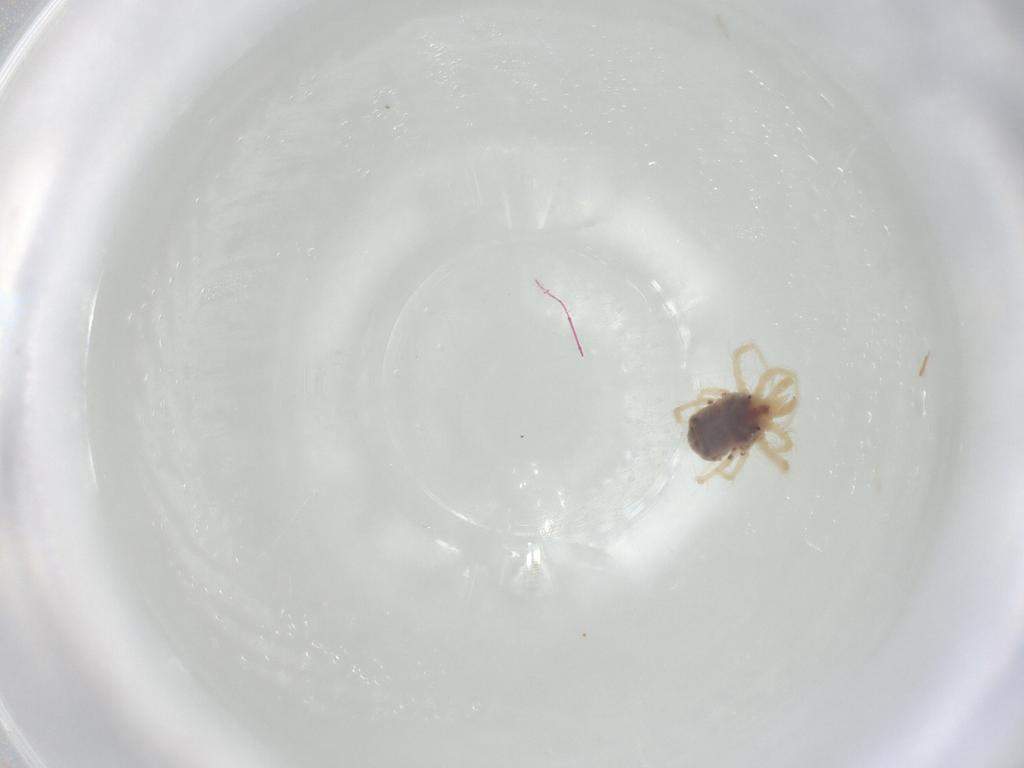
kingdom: Animalia
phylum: Arthropoda
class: Arachnida
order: Trombidiformes
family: Anystidae
